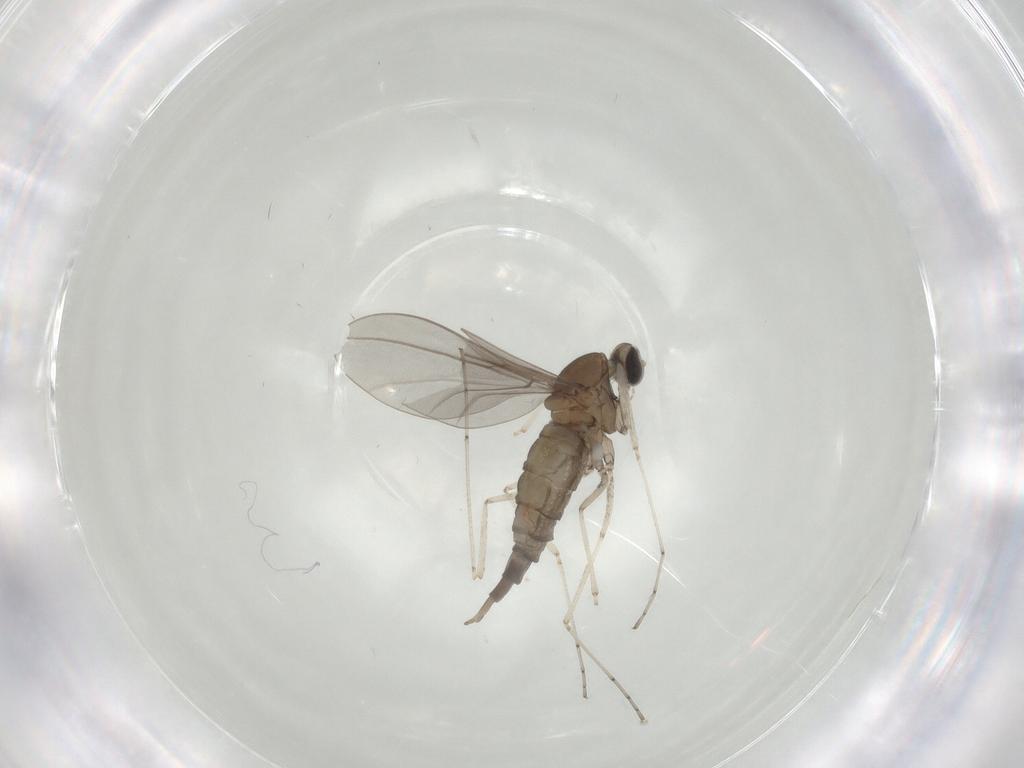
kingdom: Animalia
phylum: Arthropoda
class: Insecta
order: Diptera
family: Cecidomyiidae
